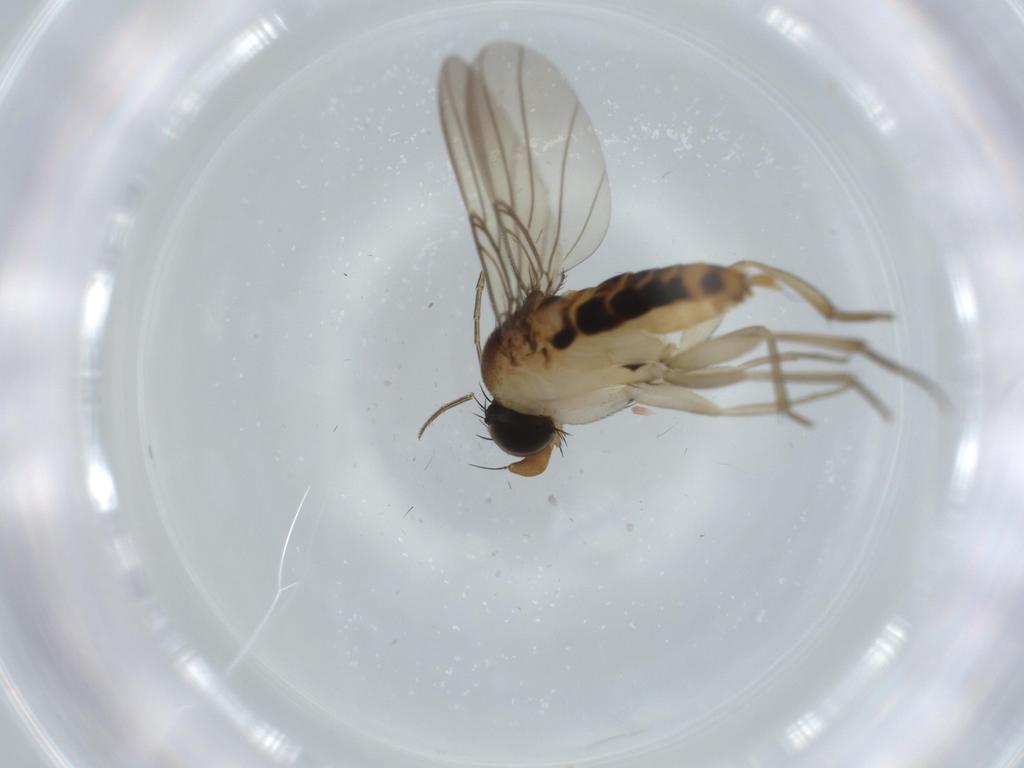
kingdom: Animalia
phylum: Arthropoda
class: Insecta
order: Diptera
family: Phoridae
